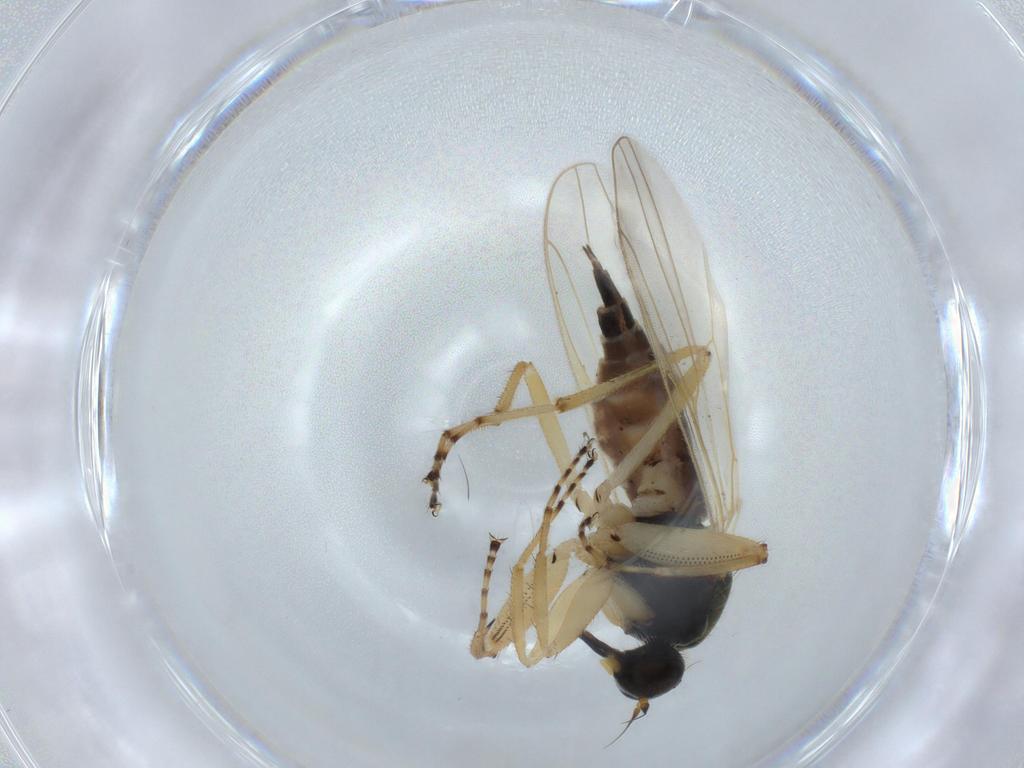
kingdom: Animalia
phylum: Arthropoda
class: Insecta
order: Diptera
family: Hybotidae
